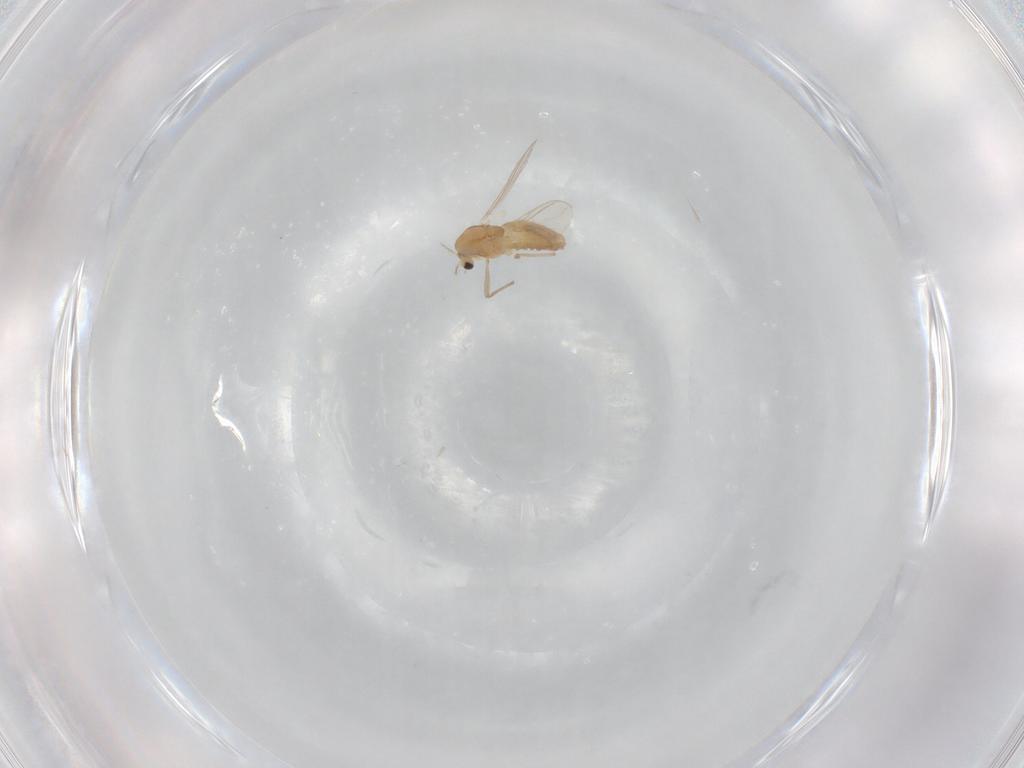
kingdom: Animalia
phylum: Arthropoda
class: Insecta
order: Diptera
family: Chironomidae
